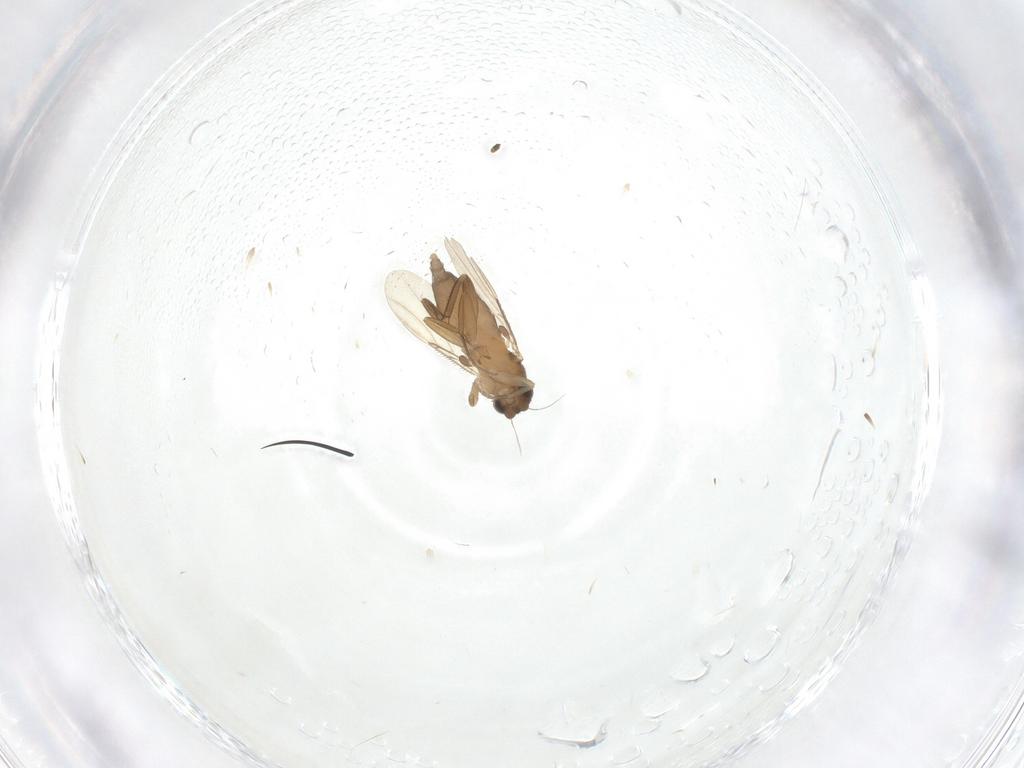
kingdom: Animalia
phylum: Arthropoda
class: Insecta
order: Diptera
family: Phoridae
